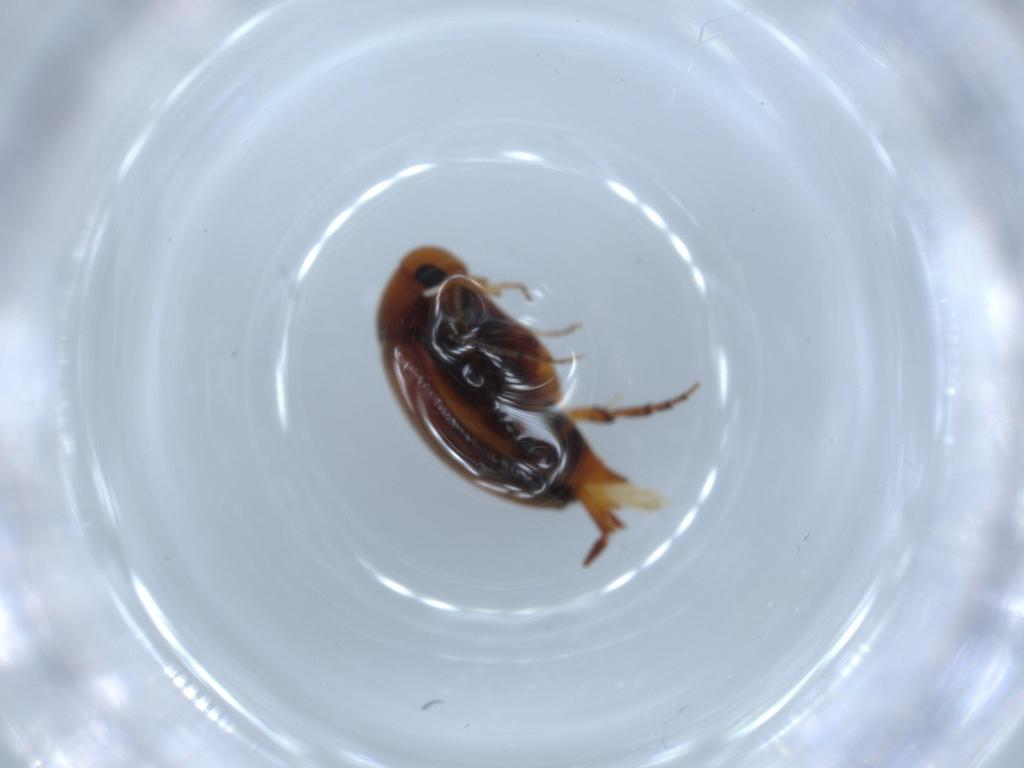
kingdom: Animalia
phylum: Arthropoda
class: Insecta
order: Coleoptera
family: Mordellidae
